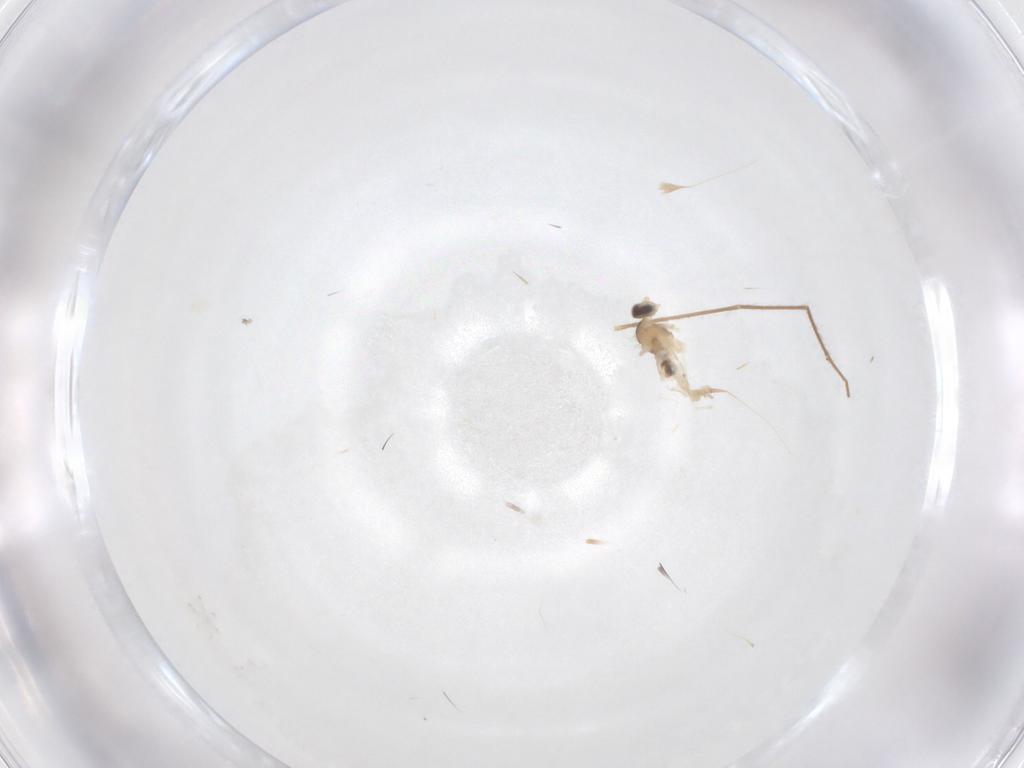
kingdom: Animalia
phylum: Arthropoda
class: Insecta
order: Diptera
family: Chironomidae
